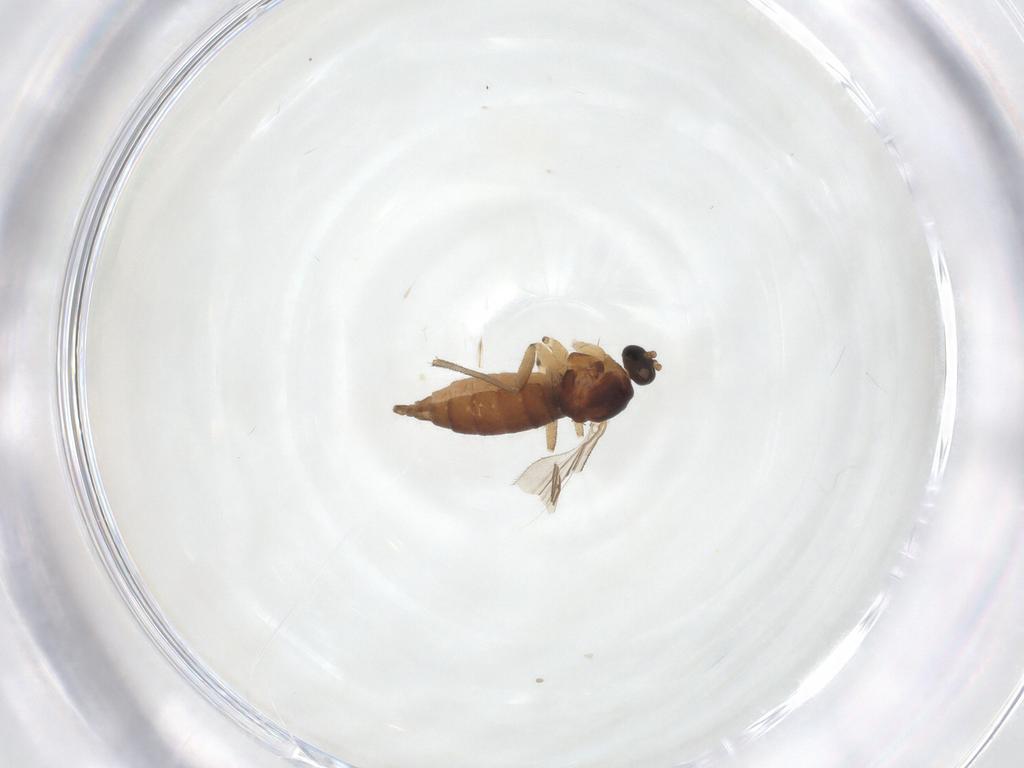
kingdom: Animalia
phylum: Arthropoda
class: Insecta
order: Diptera
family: Sciaridae
